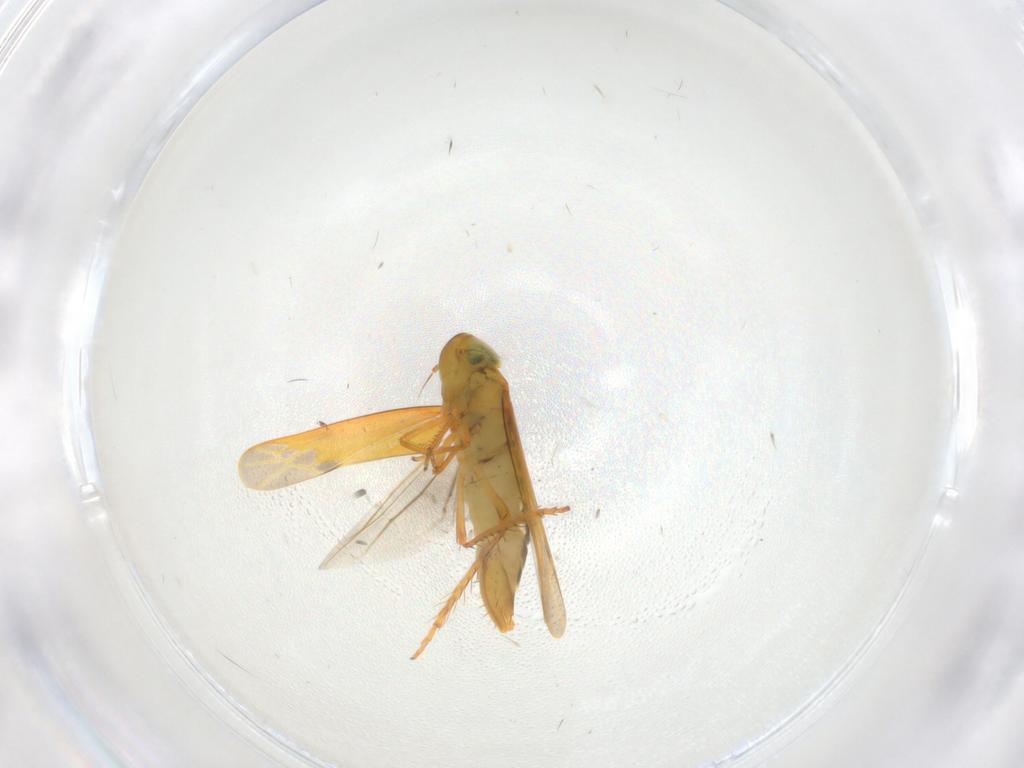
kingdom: Animalia
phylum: Arthropoda
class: Insecta
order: Hemiptera
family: Cicadellidae
